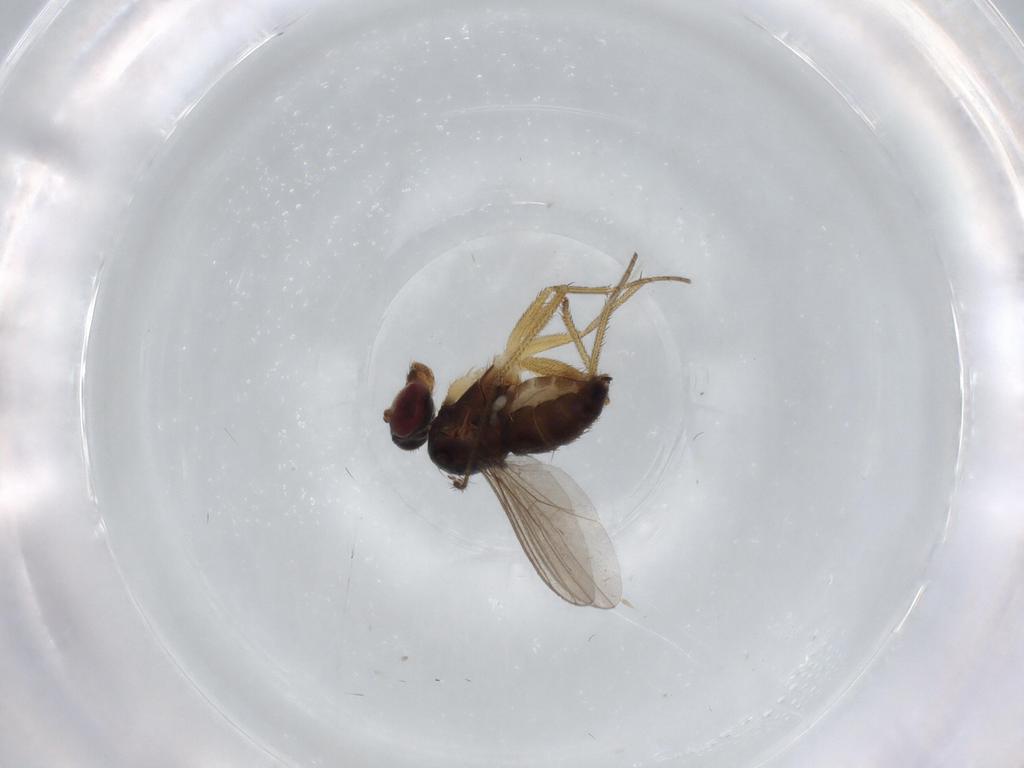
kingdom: Animalia
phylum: Arthropoda
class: Insecta
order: Diptera
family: Dolichopodidae
